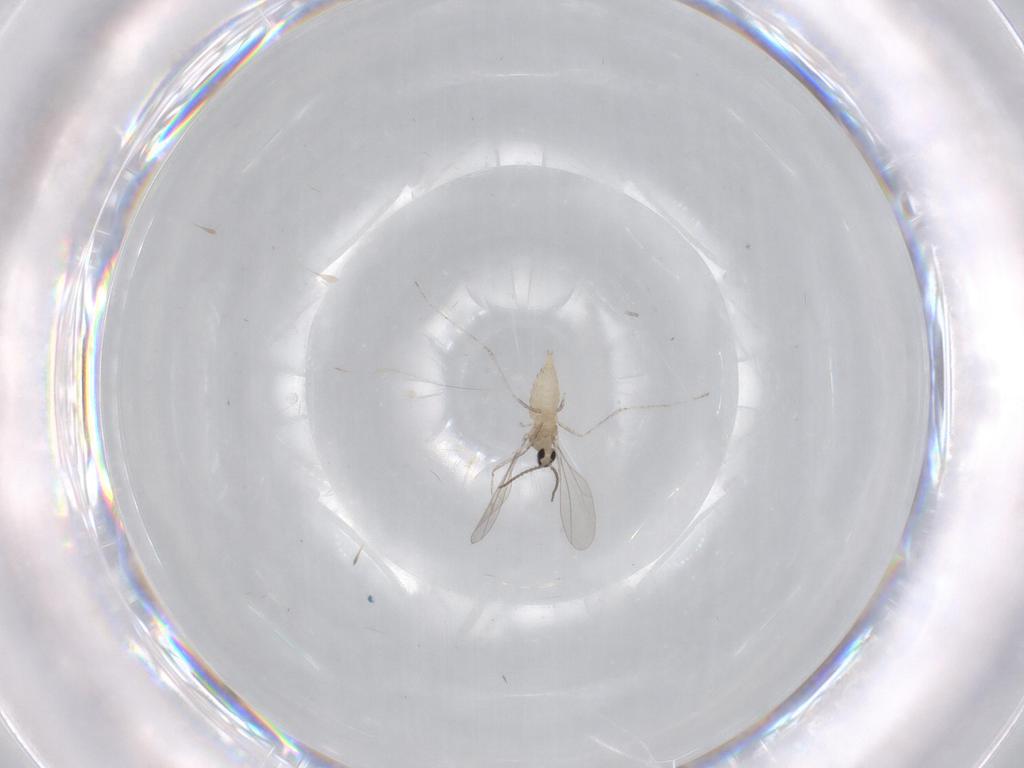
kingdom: Animalia
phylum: Arthropoda
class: Insecta
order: Diptera
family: Cecidomyiidae
